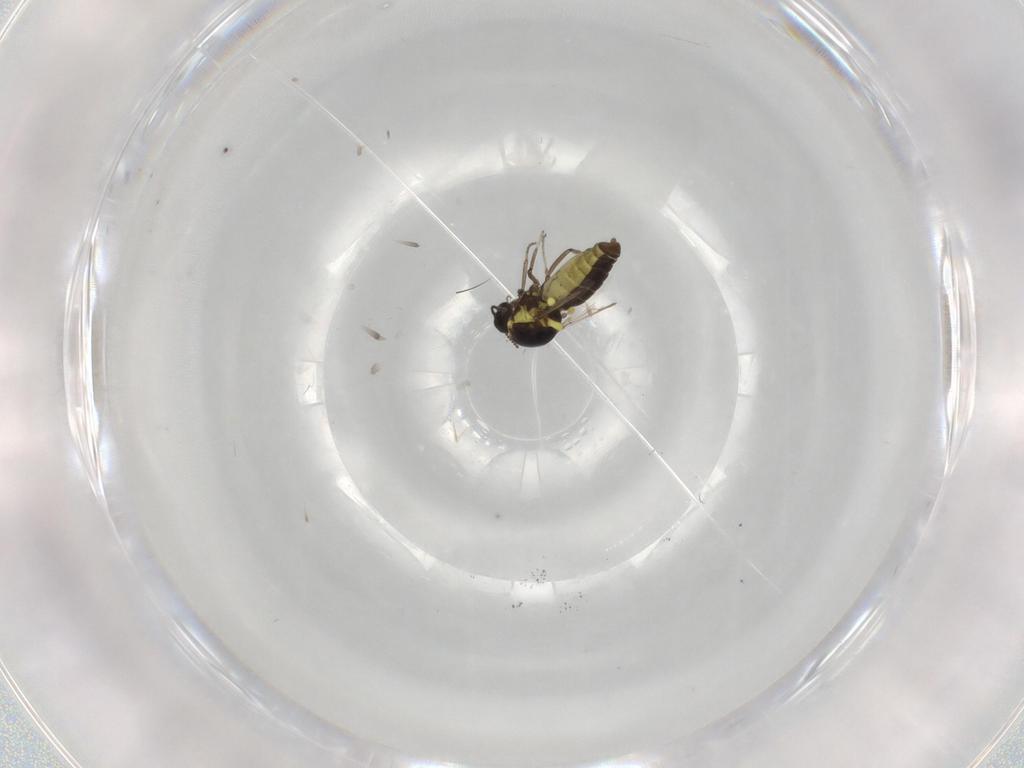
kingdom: Animalia
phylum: Arthropoda
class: Insecta
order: Diptera
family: Ceratopogonidae
